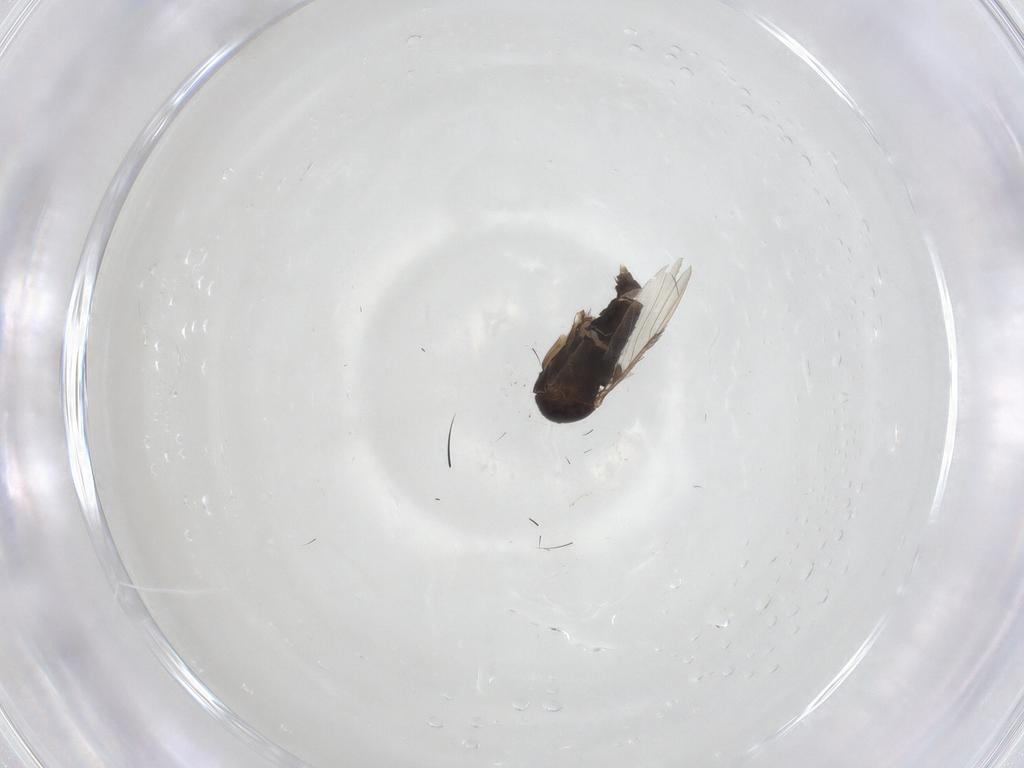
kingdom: Animalia
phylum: Arthropoda
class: Insecta
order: Diptera
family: Phoridae
